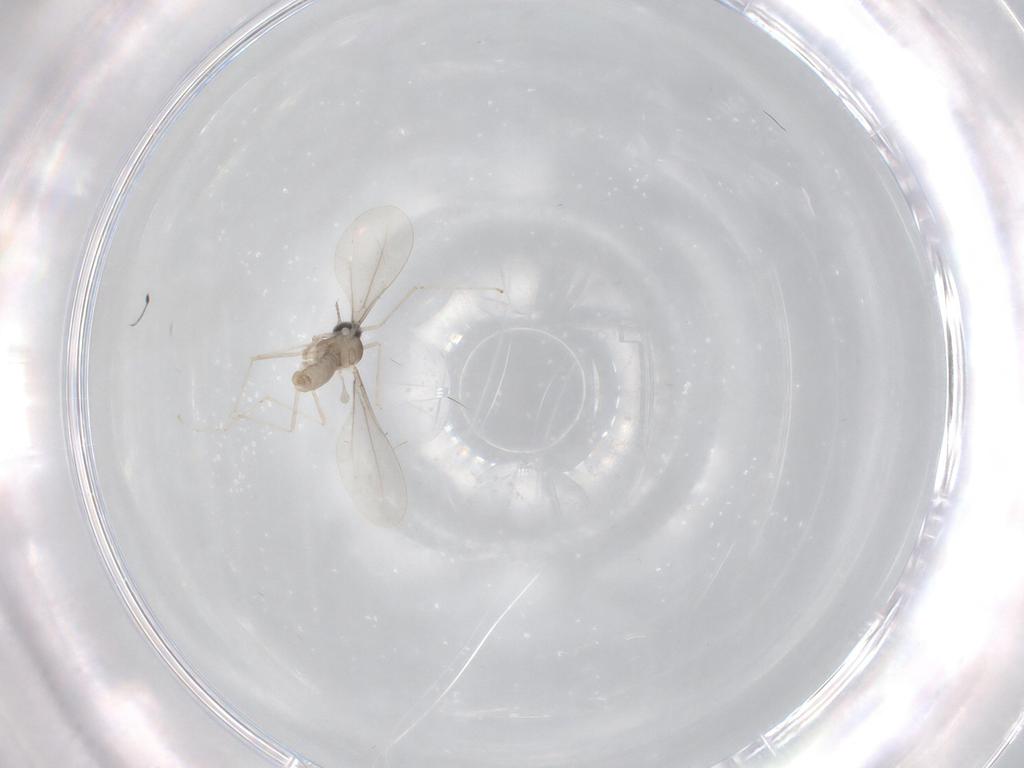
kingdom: Animalia
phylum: Arthropoda
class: Insecta
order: Diptera
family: Cecidomyiidae
